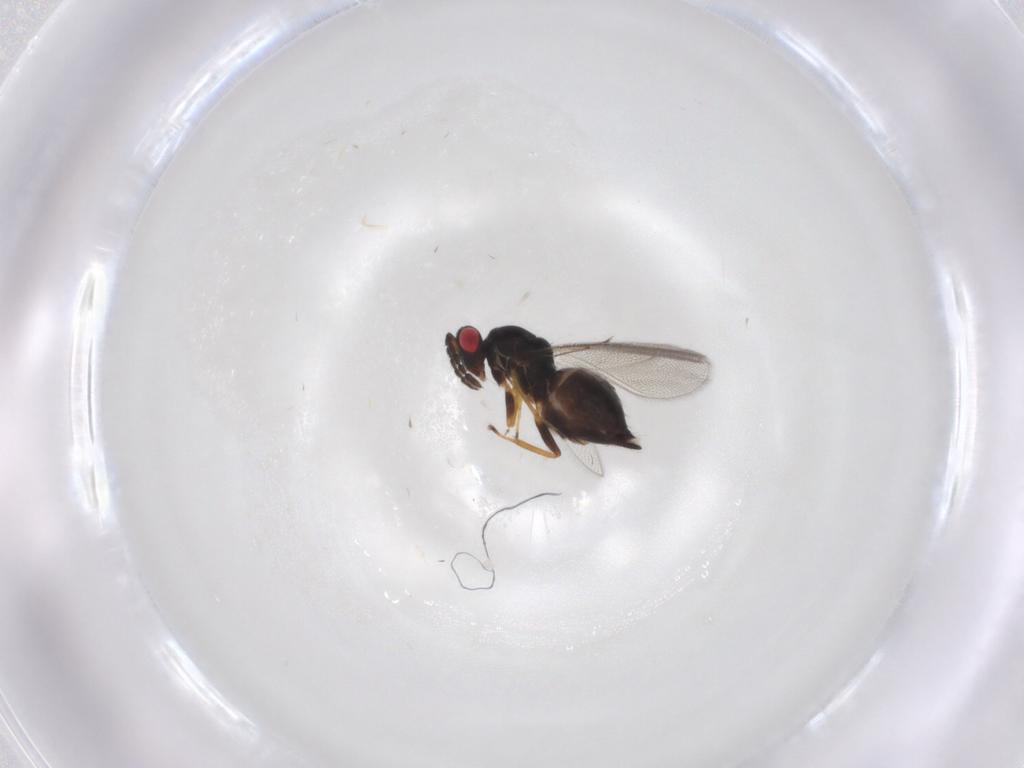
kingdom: Animalia
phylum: Arthropoda
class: Insecta
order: Hymenoptera
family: Eulophidae
